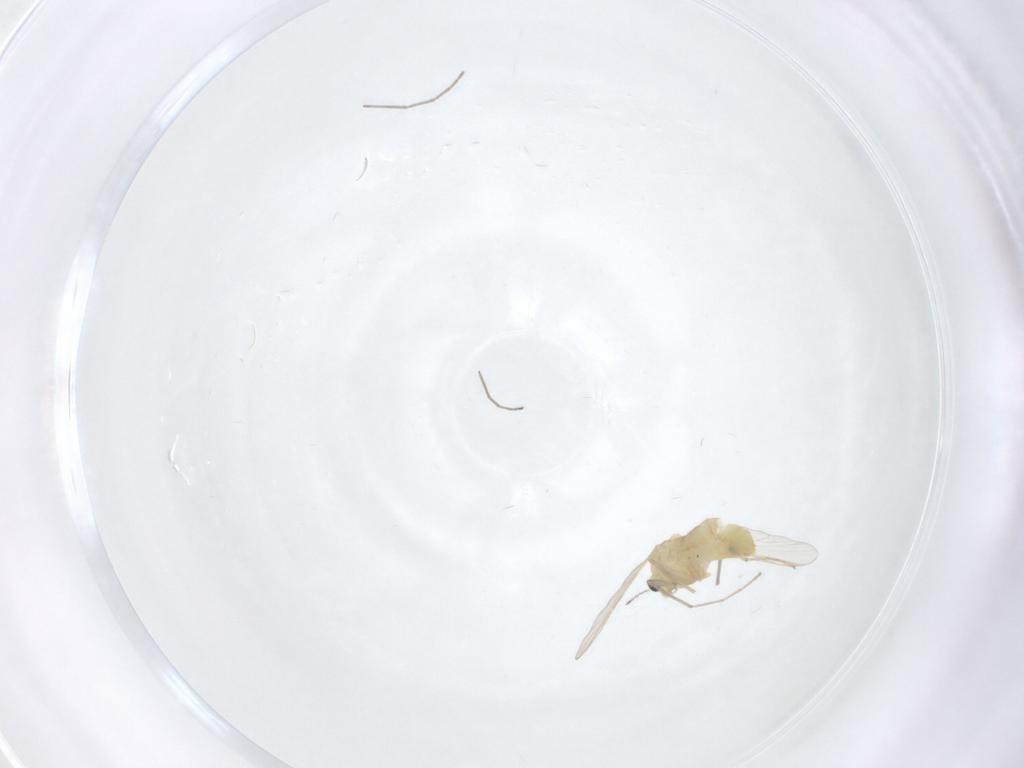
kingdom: Animalia
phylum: Arthropoda
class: Insecta
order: Diptera
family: Chironomidae
